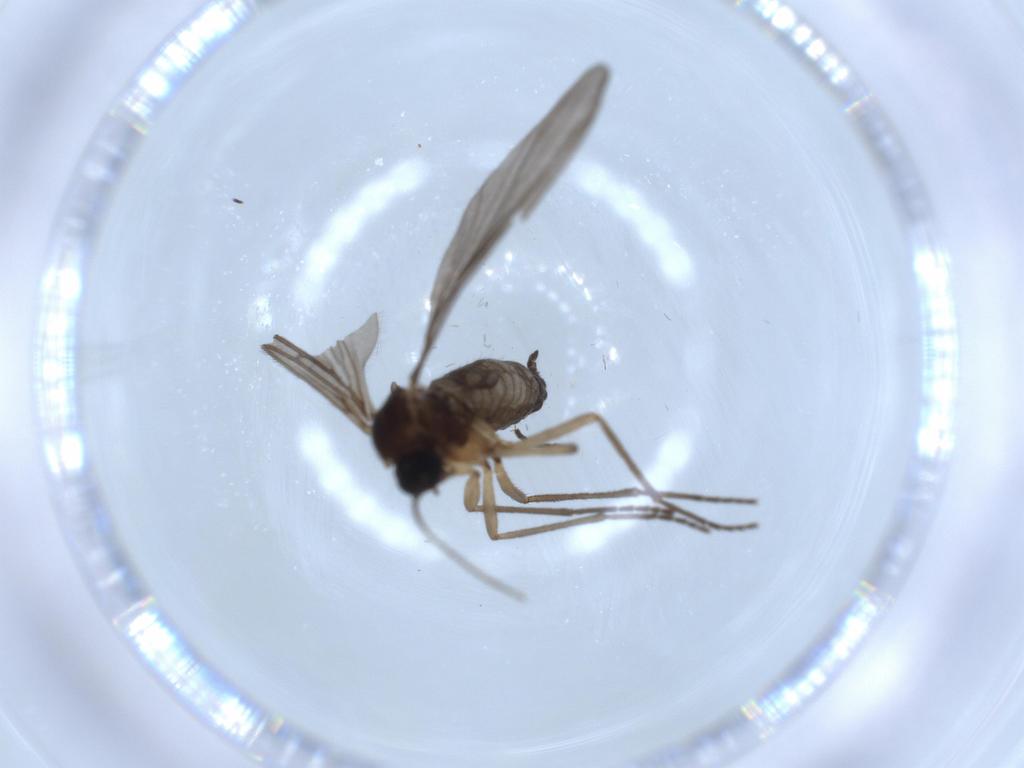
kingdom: Animalia
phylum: Arthropoda
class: Insecta
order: Diptera
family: Sciaridae
